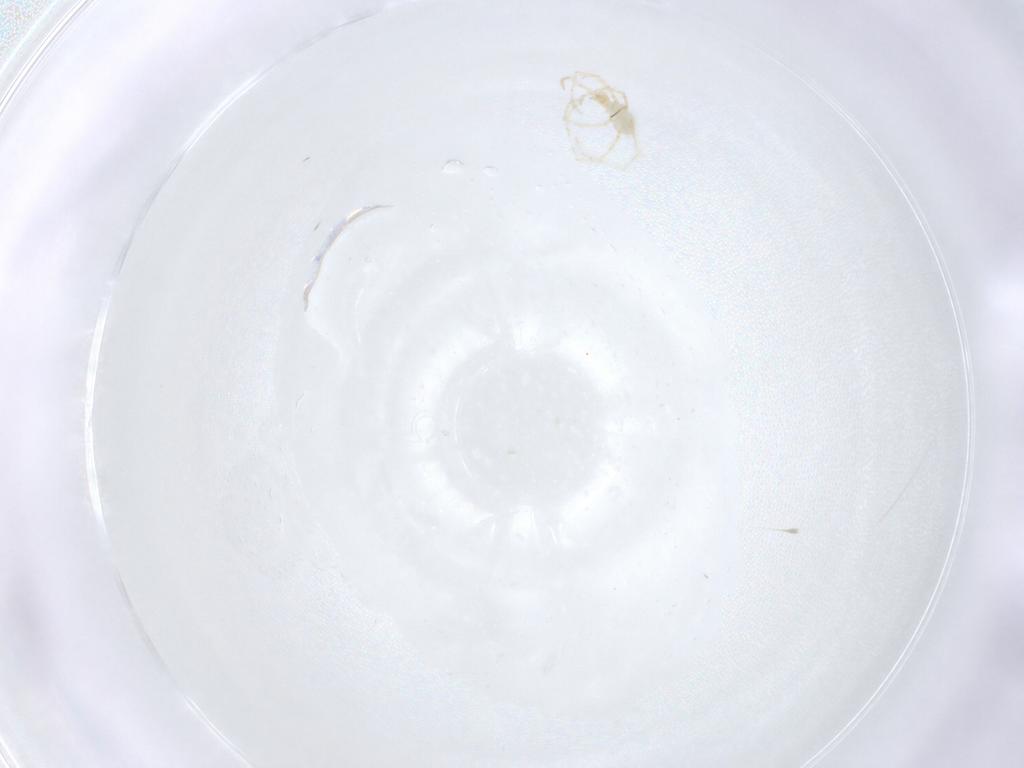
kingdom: Animalia
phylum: Arthropoda
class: Arachnida
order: Trombidiformes
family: Erythraeidae
